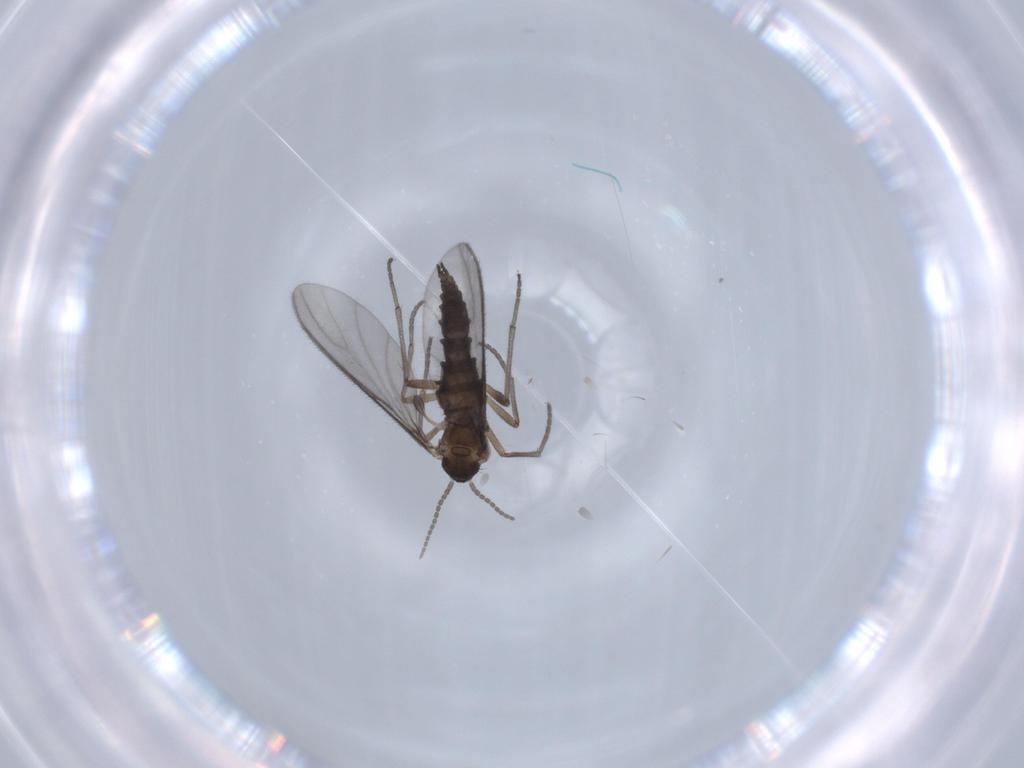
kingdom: Animalia
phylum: Arthropoda
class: Insecta
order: Diptera
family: Sciaridae
